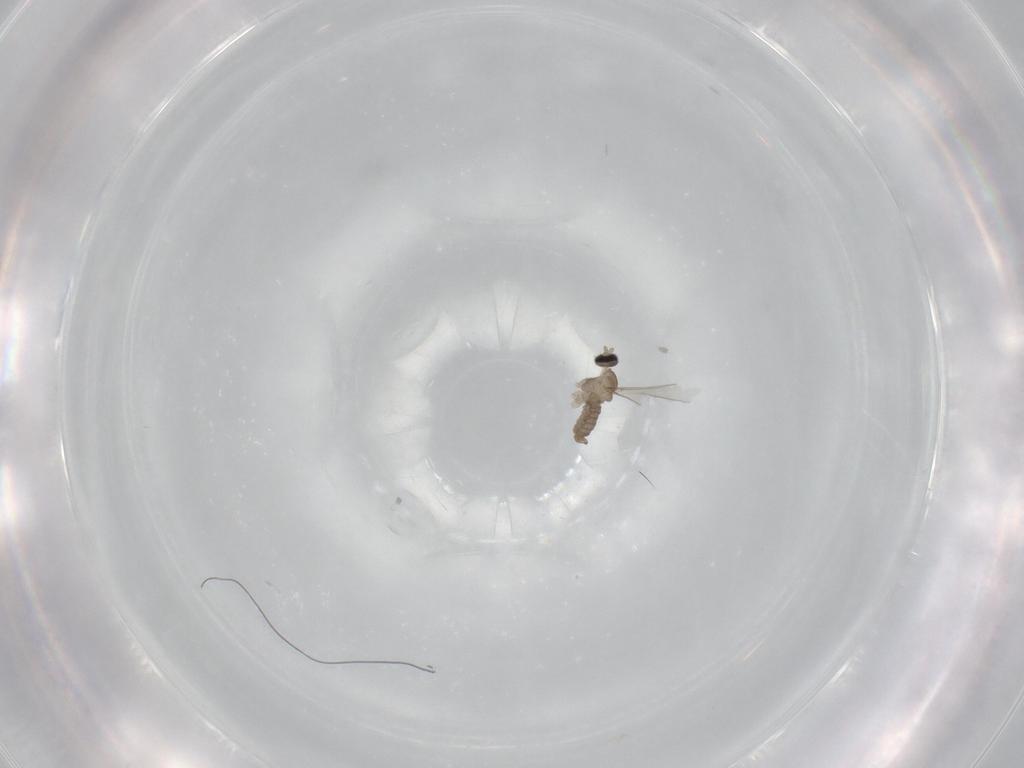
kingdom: Animalia
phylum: Arthropoda
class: Insecta
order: Diptera
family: Cecidomyiidae
